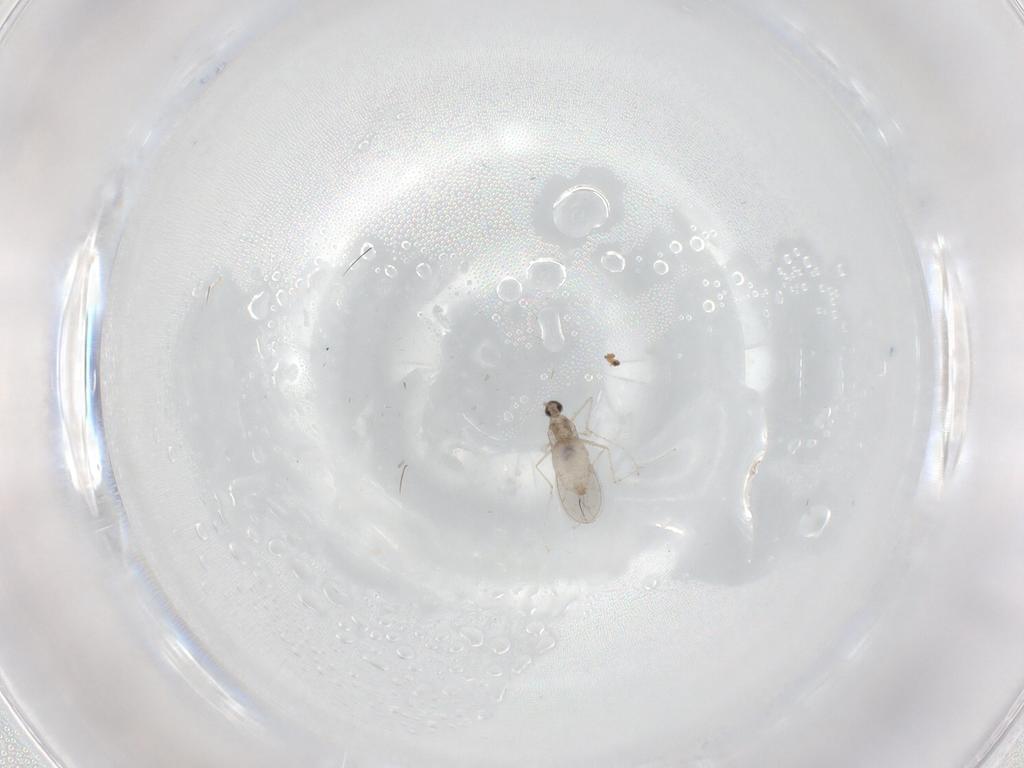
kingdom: Animalia
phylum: Arthropoda
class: Insecta
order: Diptera
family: Cecidomyiidae
